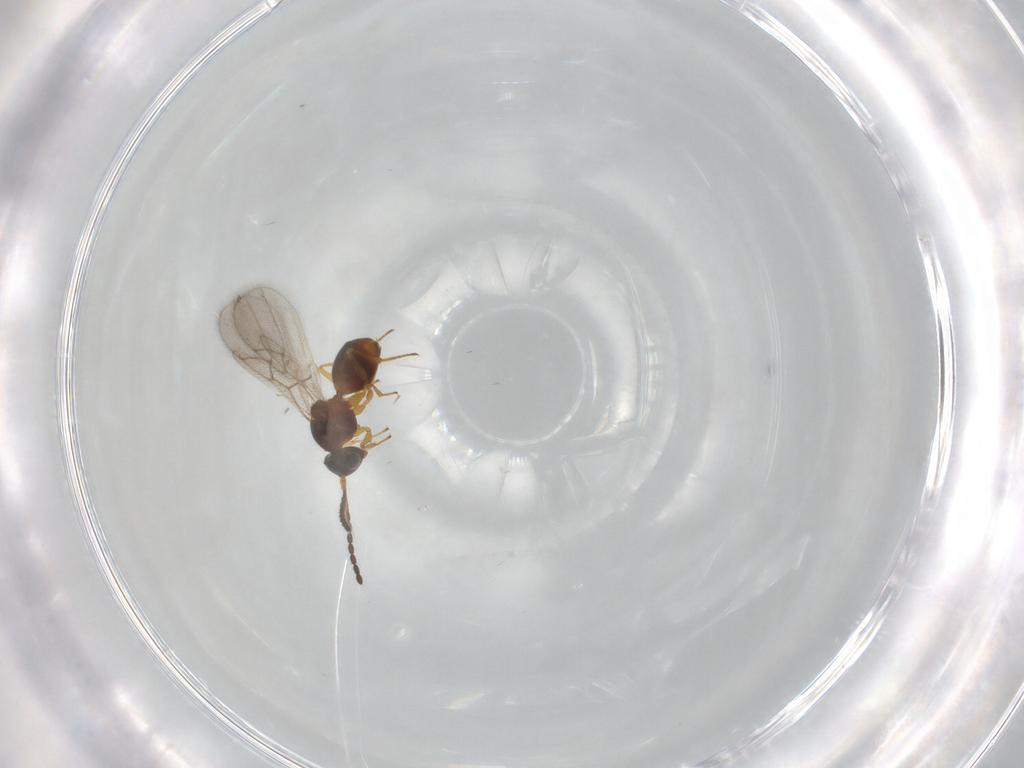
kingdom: Animalia
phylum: Arthropoda
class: Insecta
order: Hymenoptera
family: Figitidae
